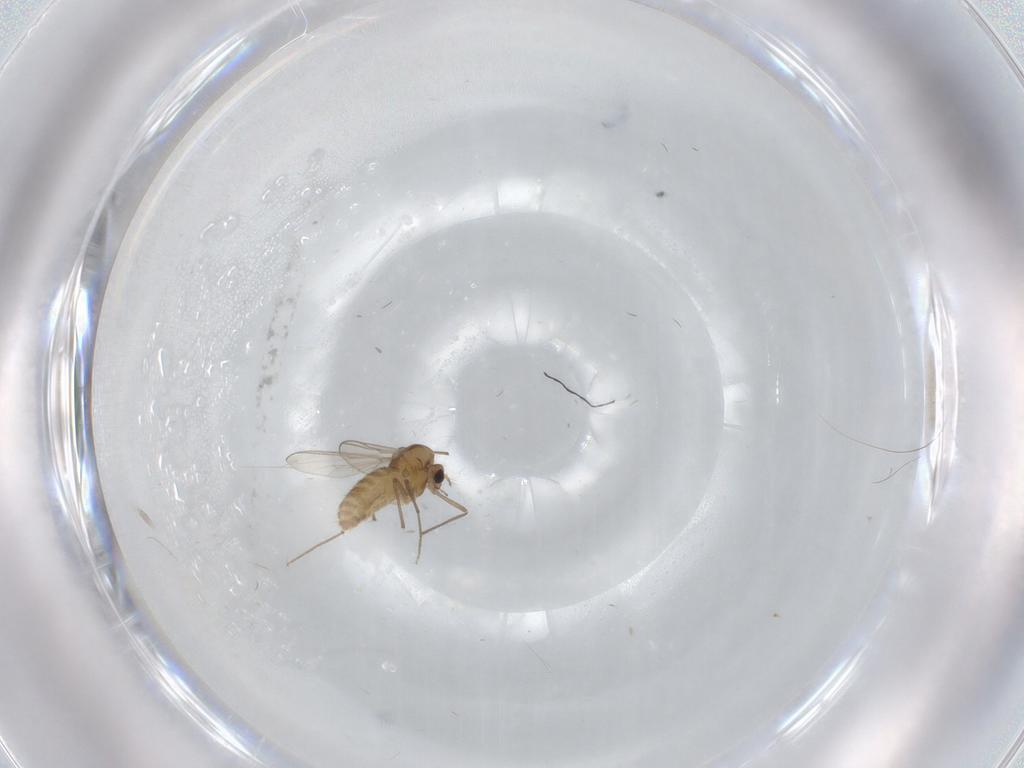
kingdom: Animalia
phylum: Arthropoda
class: Insecta
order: Diptera
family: Chironomidae
